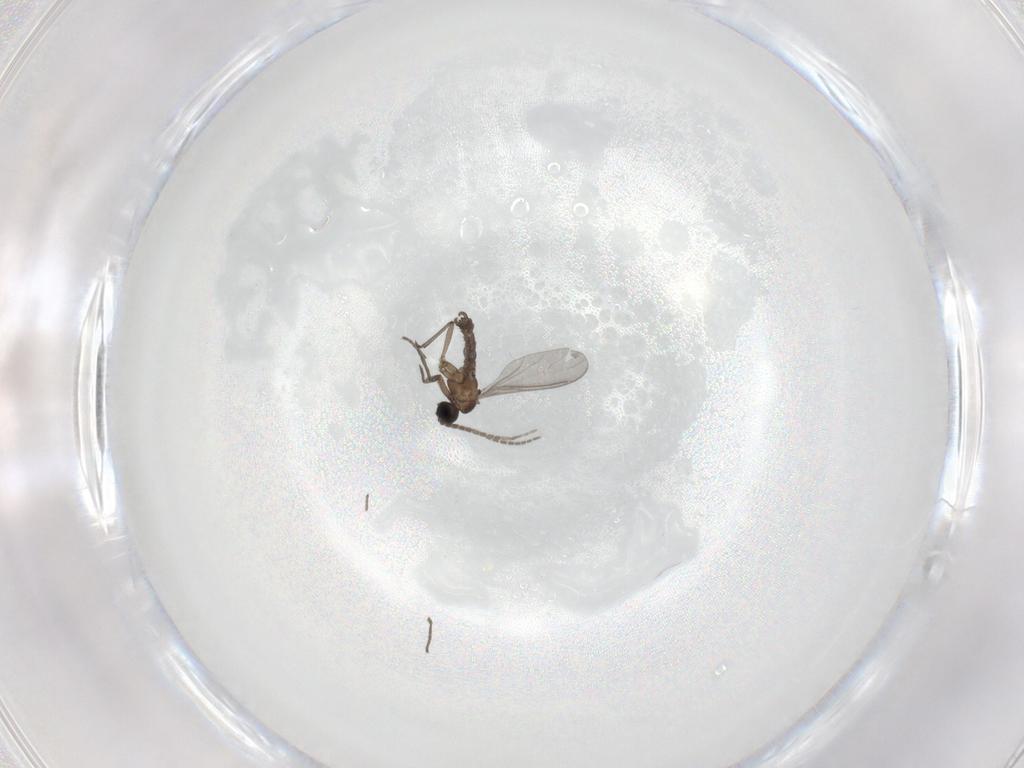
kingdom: Animalia
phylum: Arthropoda
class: Insecta
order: Diptera
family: Sciaridae
